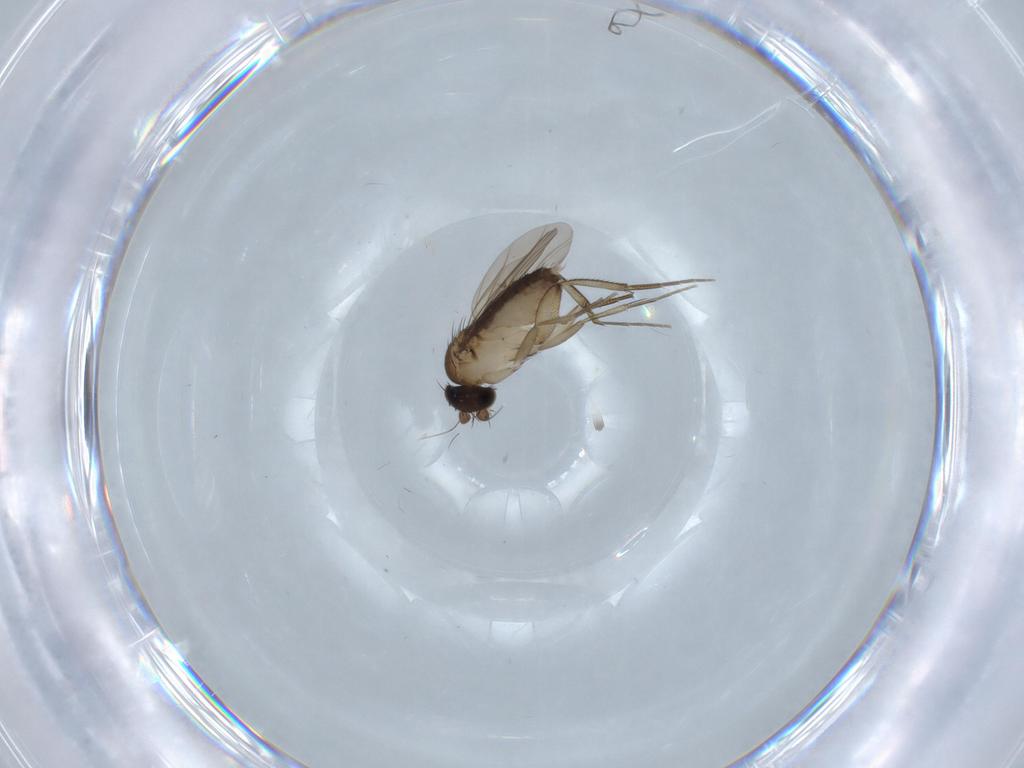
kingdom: Animalia
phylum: Arthropoda
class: Insecta
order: Diptera
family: Phoridae
